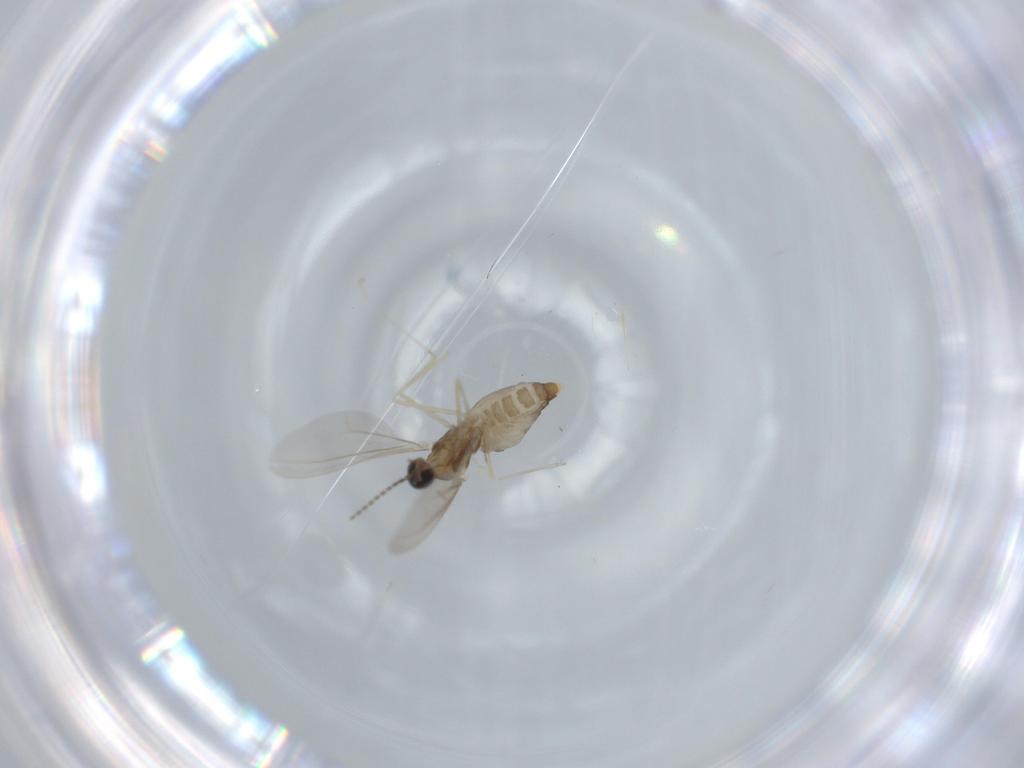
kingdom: Animalia
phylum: Arthropoda
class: Insecta
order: Diptera
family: Cecidomyiidae
